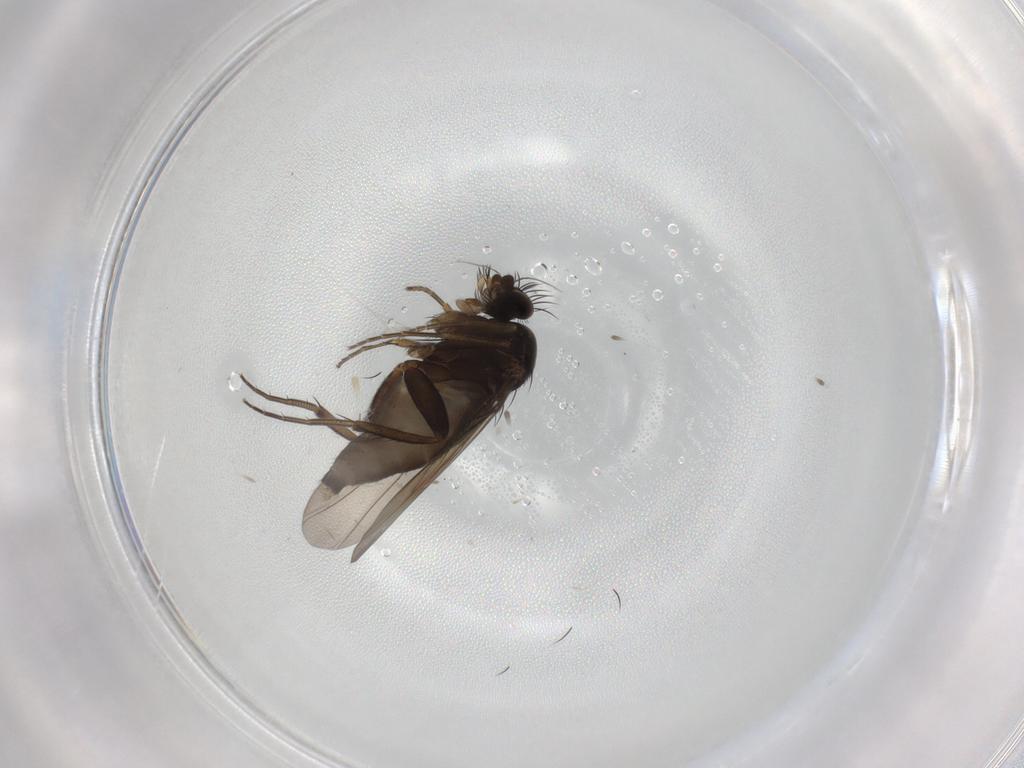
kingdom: Animalia
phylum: Arthropoda
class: Insecta
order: Diptera
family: Phoridae
